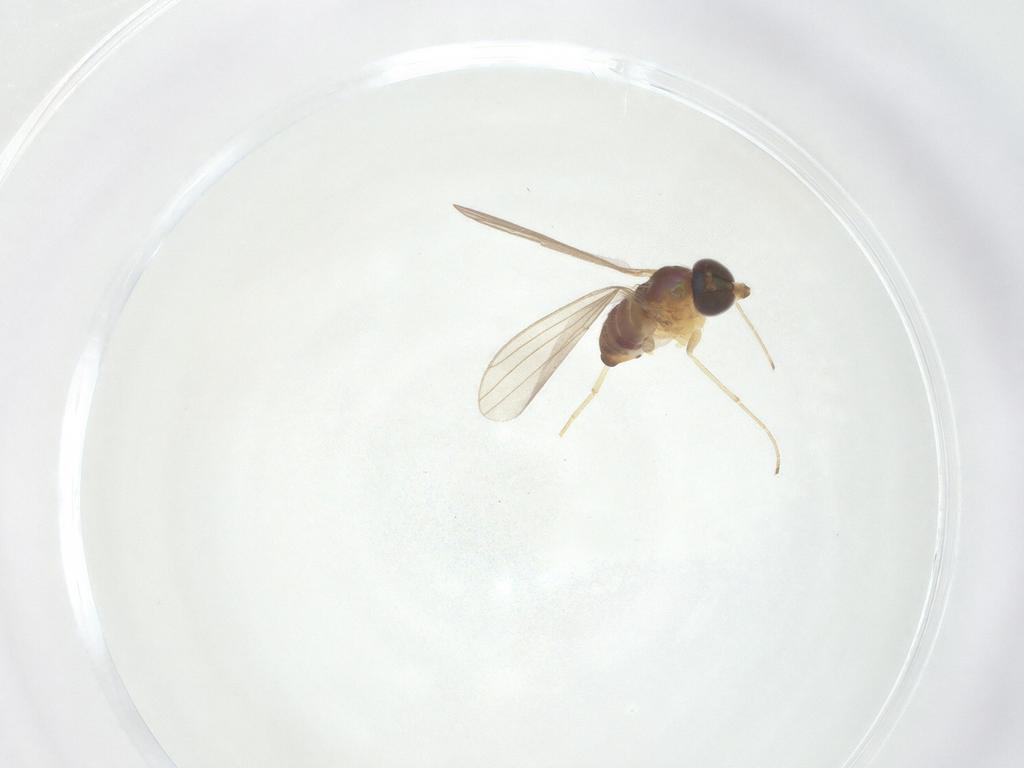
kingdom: Animalia
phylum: Arthropoda
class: Insecta
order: Diptera
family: Dolichopodidae
